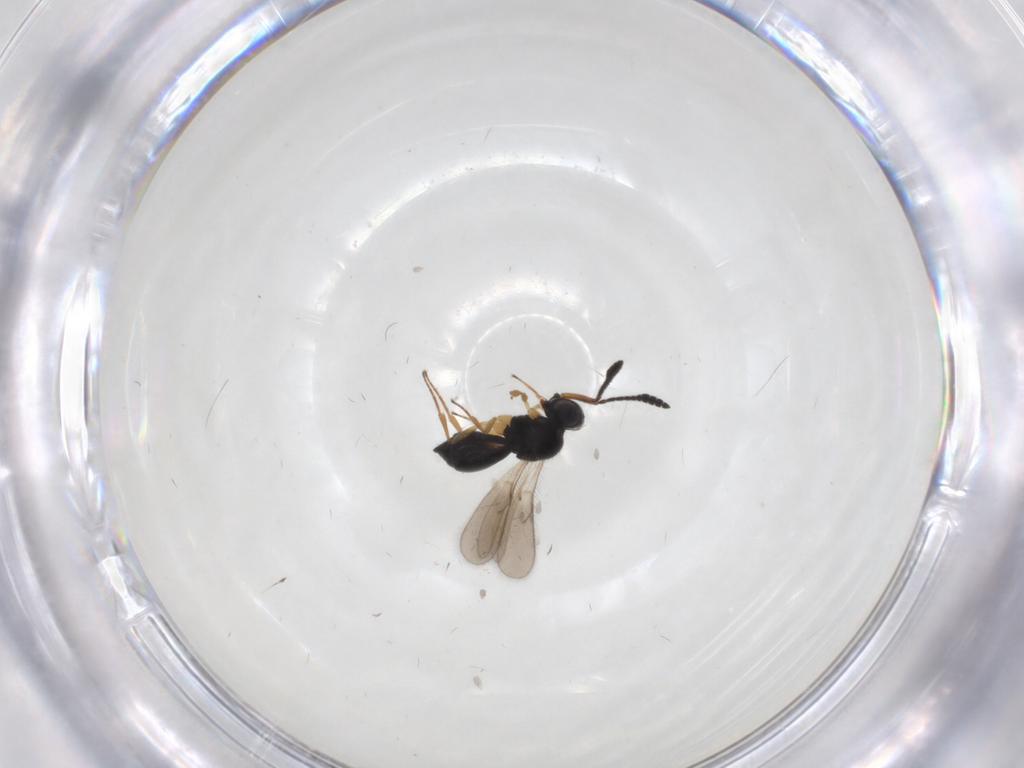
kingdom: Animalia
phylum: Arthropoda
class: Insecta
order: Hymenoptera
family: Scelionidae
